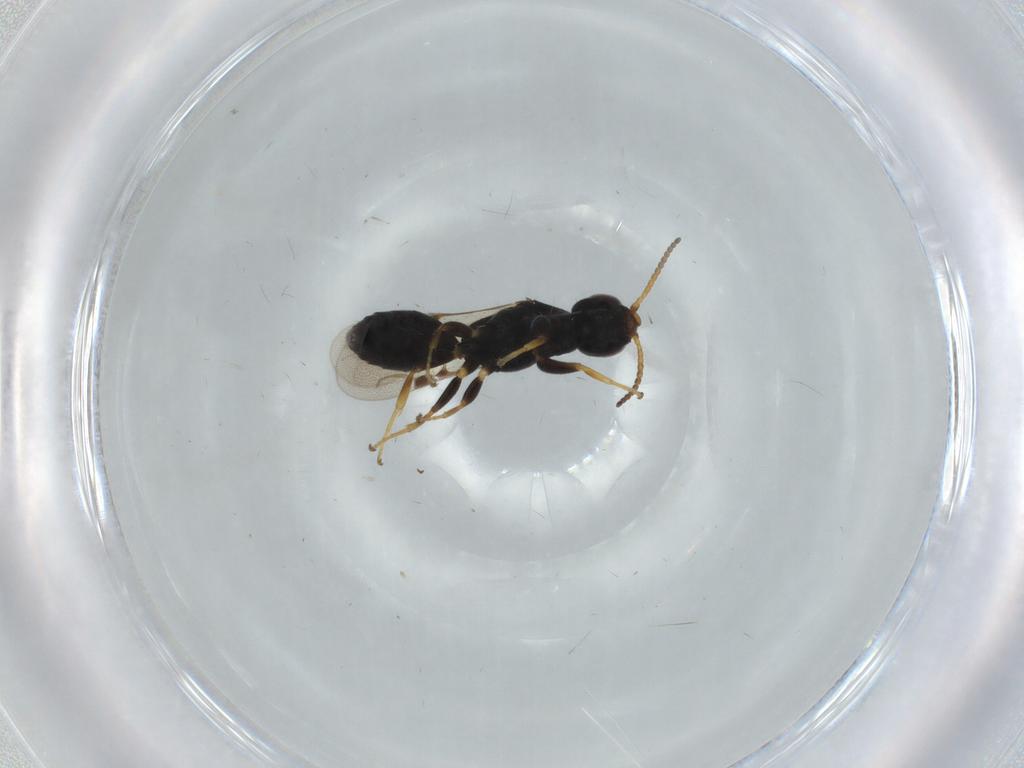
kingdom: Animalia
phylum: Arthropoda
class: Insecta
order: Hymenoptera
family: Bethylidae
